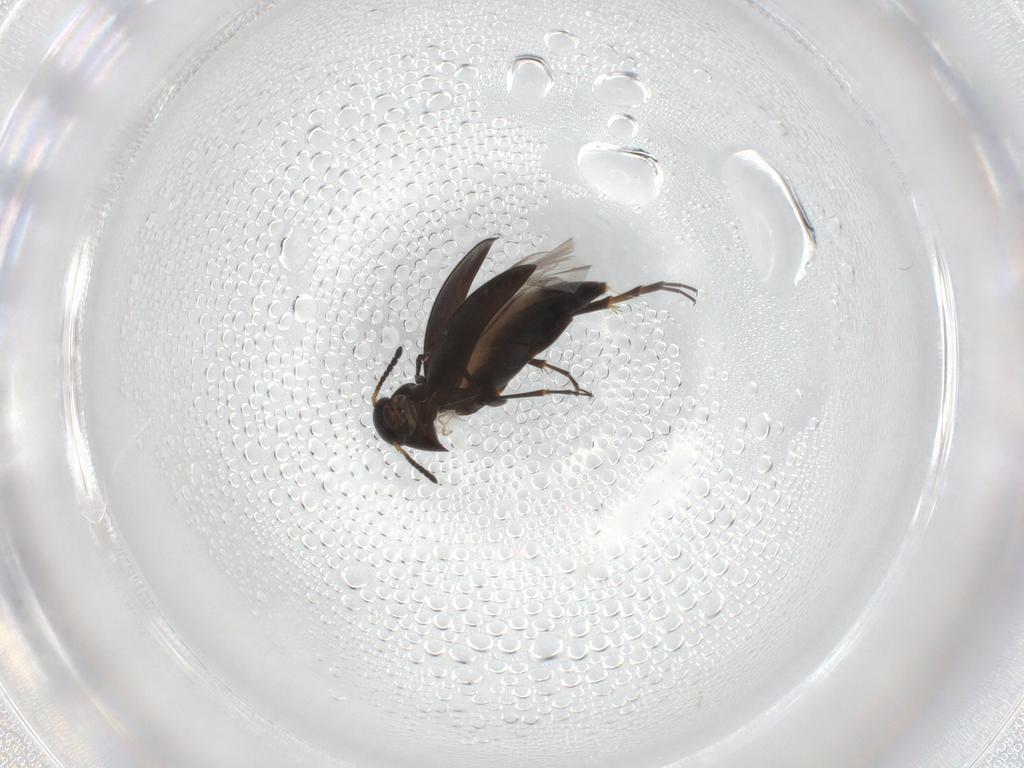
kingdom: Animalia
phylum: Arthropoda
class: Insecta
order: Coleoptera
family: Scraptiidae
